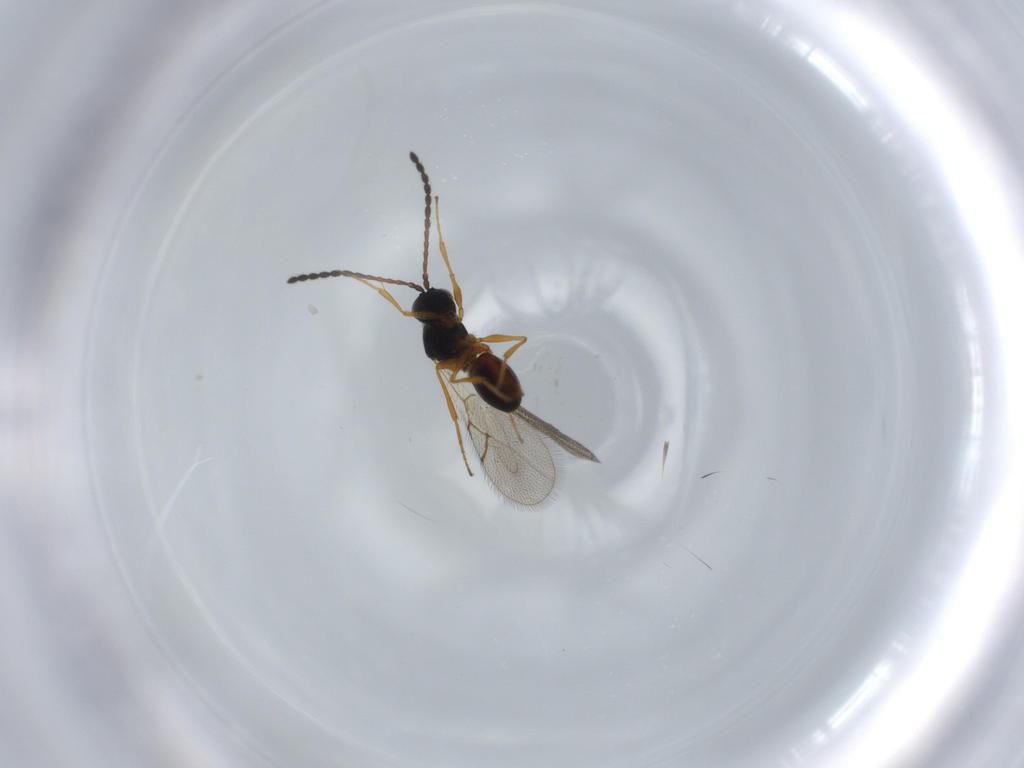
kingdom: Animalia
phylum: Arthropoda
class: Insecta
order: Hymenoptera
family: Figitidae
